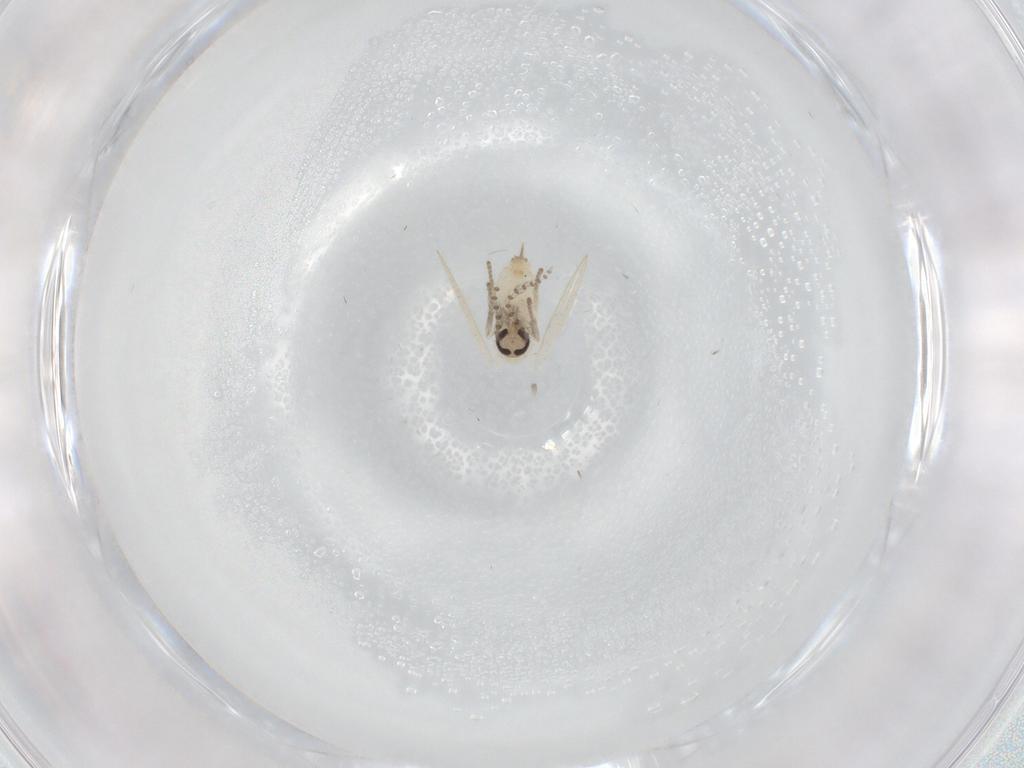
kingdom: Animalia
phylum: Arthropoda
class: Insecta
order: Diptera
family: Psychodidae
